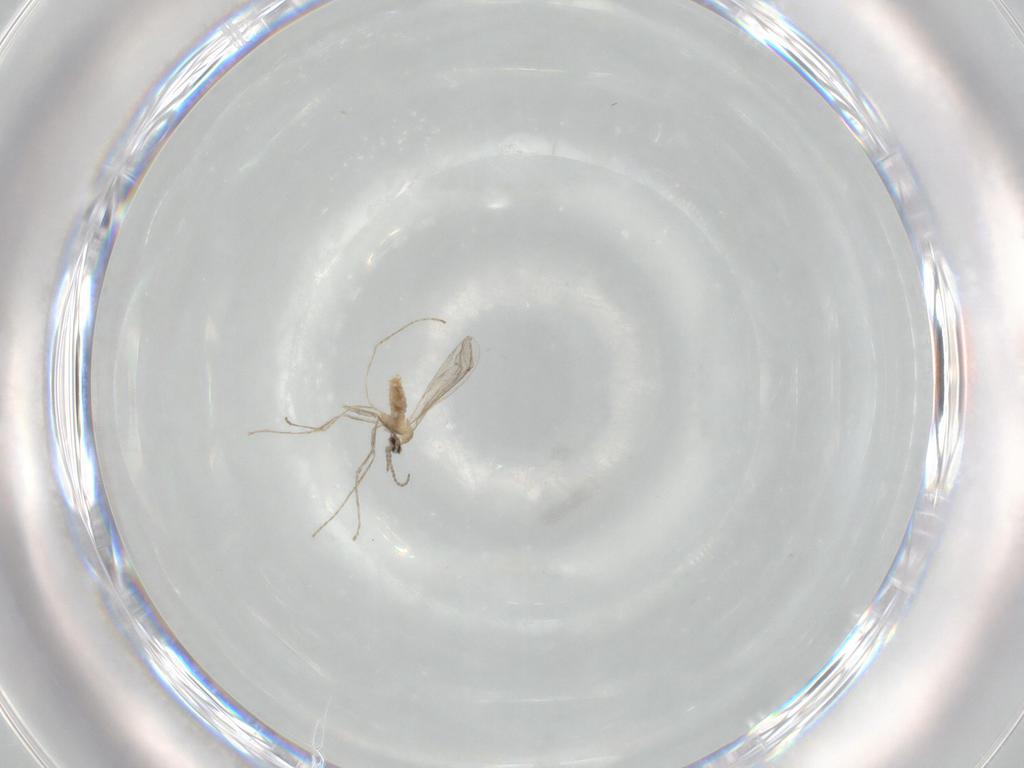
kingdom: Animalia
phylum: Arthropoda
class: Insecta
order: Diptera
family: Cecidomyiidae
